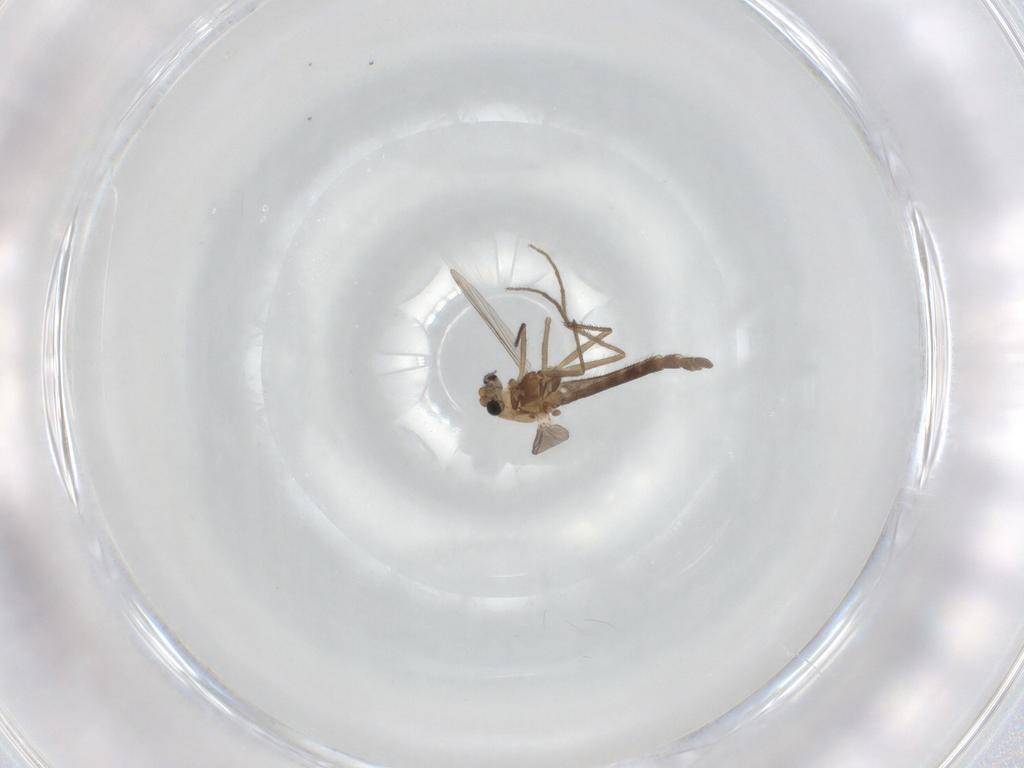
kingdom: Animalia
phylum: Arthropoda
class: Insecta
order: Diptera
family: Chironomidae
